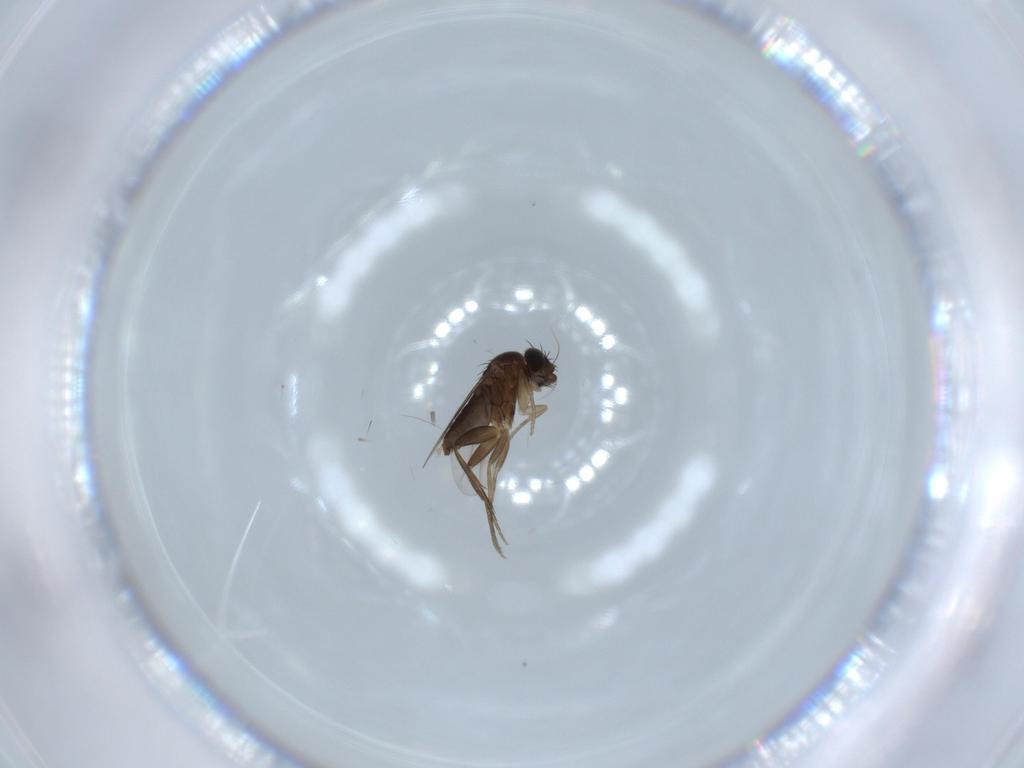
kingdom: Animalia
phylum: Arthropoda
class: Insecta
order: Diptera
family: Phoridae
